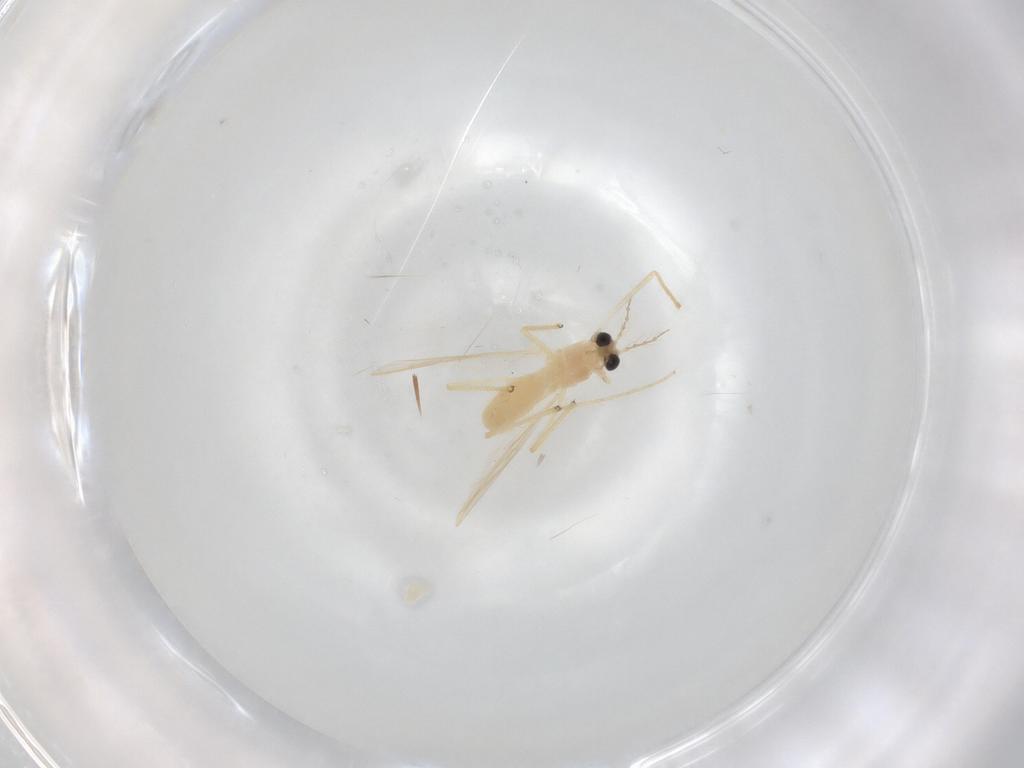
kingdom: Animalia
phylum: Arthropoda
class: Insecta
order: Diptera
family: Chironomidae
